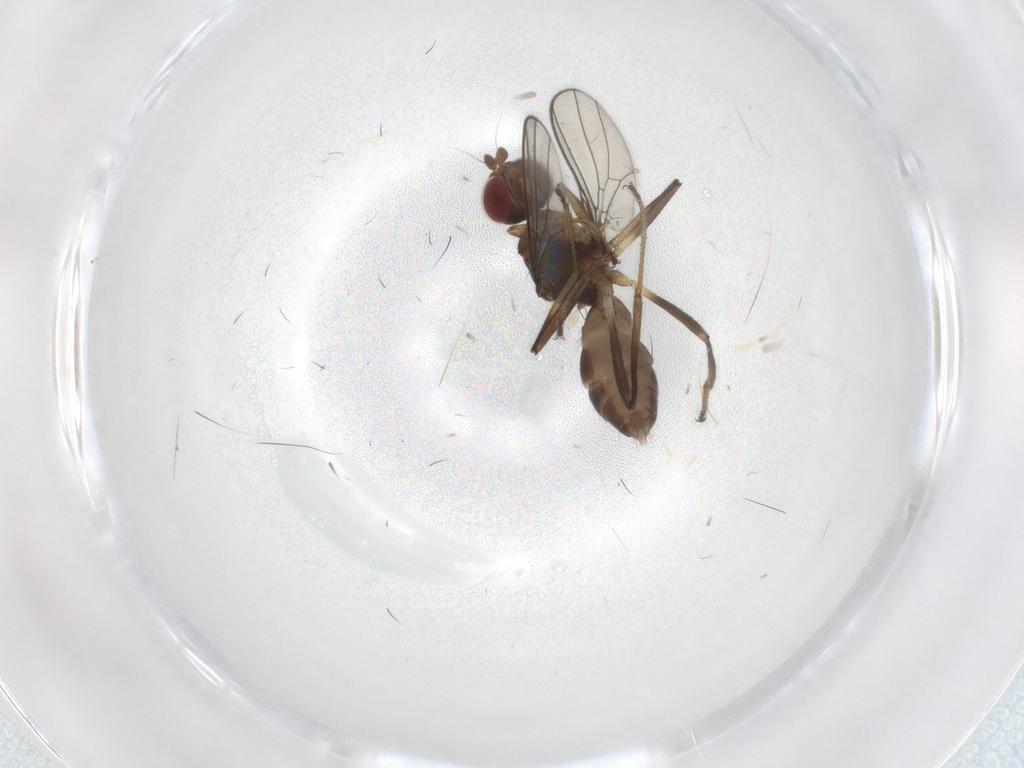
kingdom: Animalia
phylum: Arthropoda
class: Insecta
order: Diptera
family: Sepsidae
